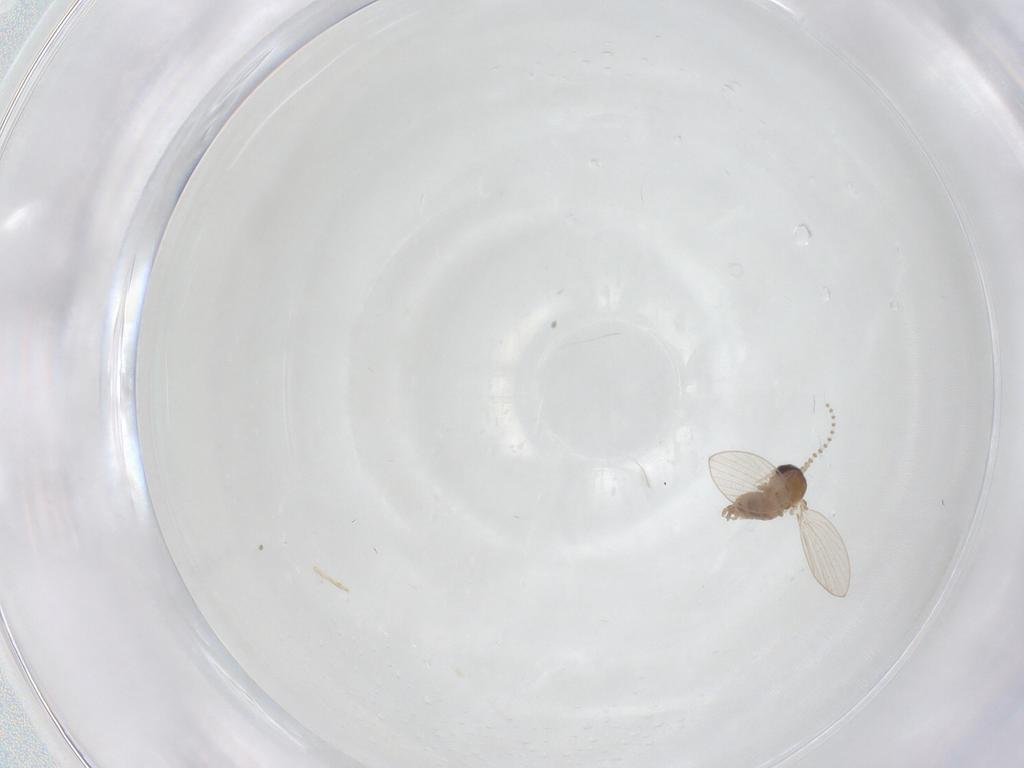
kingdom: Animalia
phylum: Arthropoda
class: Insecta
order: Diptera
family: Psychodidae
